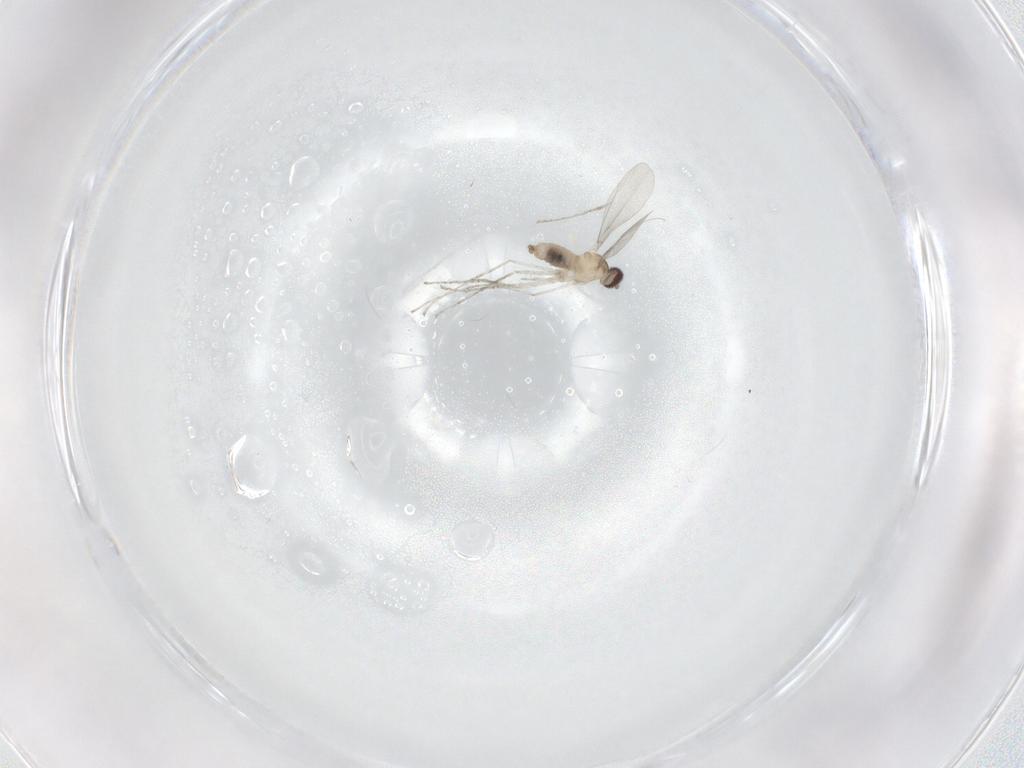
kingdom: Animalia
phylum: Arthropoda
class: Insecta
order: Diptera
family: Cecidomyiidae
